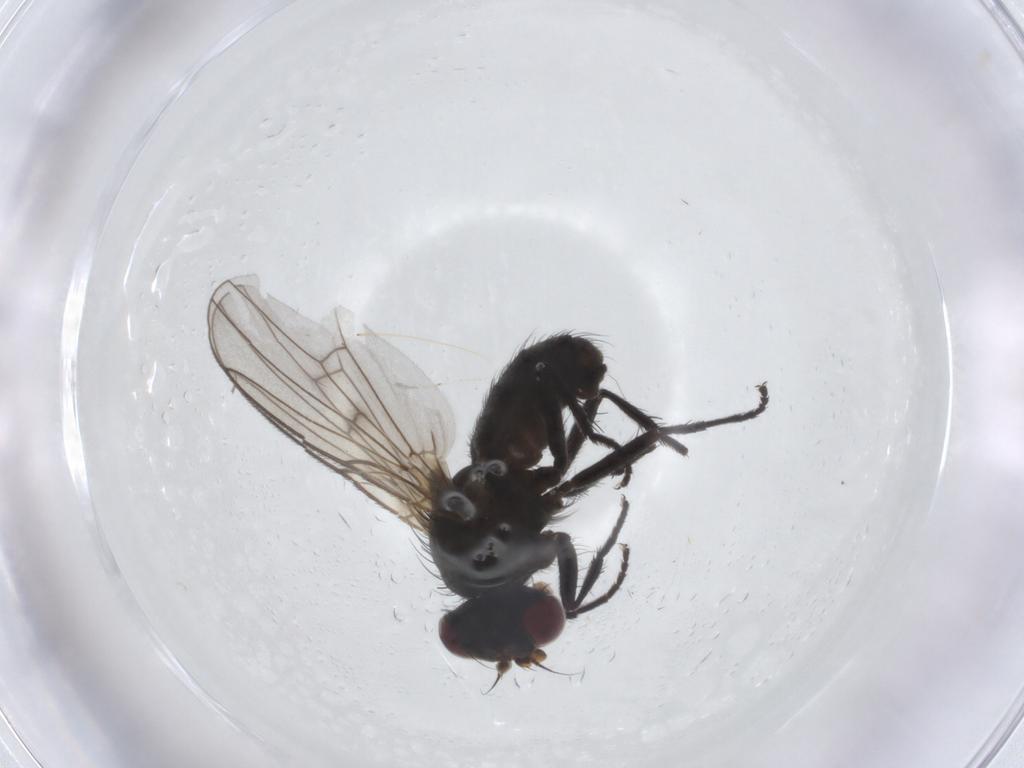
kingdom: Animalia
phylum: Arthropoda
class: Insecta
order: Diptera
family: Muscidae
